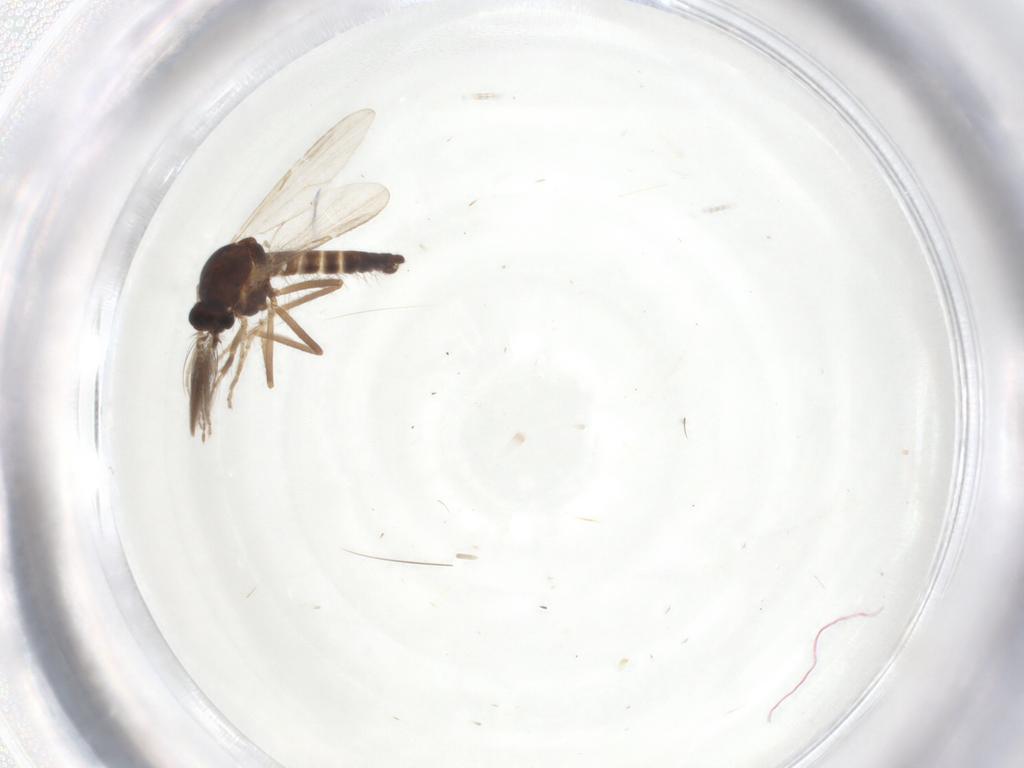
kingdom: Animalia
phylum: Arthropoda
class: Insecta
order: Diptera
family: Ceratopogonidae
